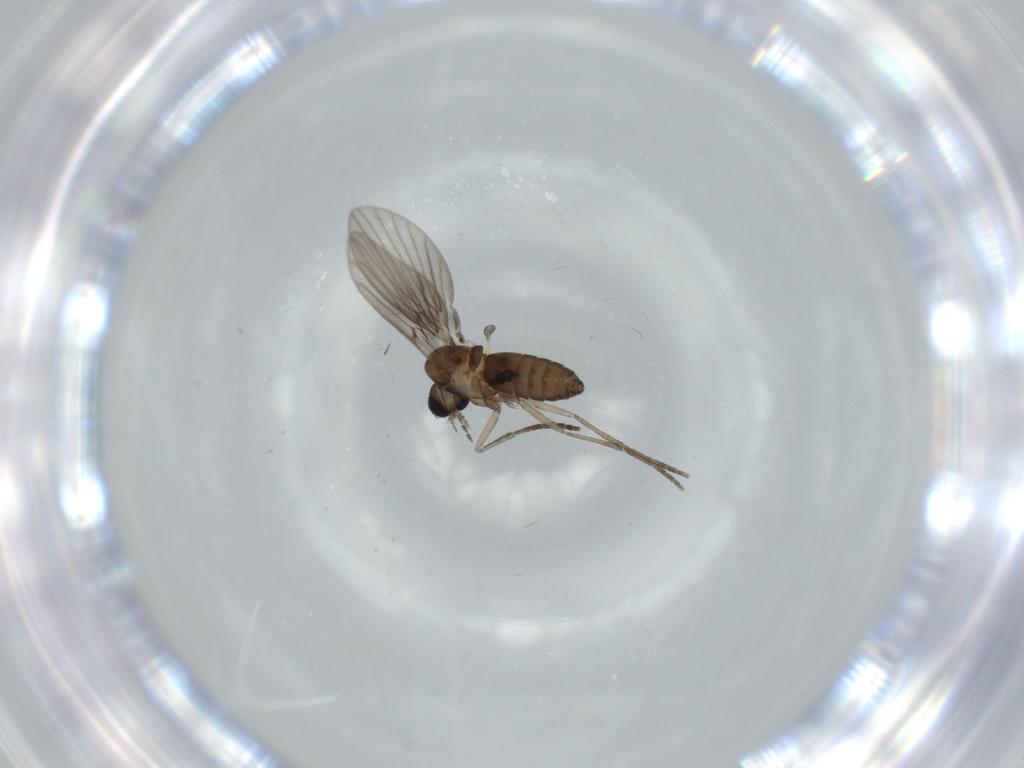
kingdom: Animalia
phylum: Arthropoda
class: Insecta
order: Diptera
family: Psychodidae
